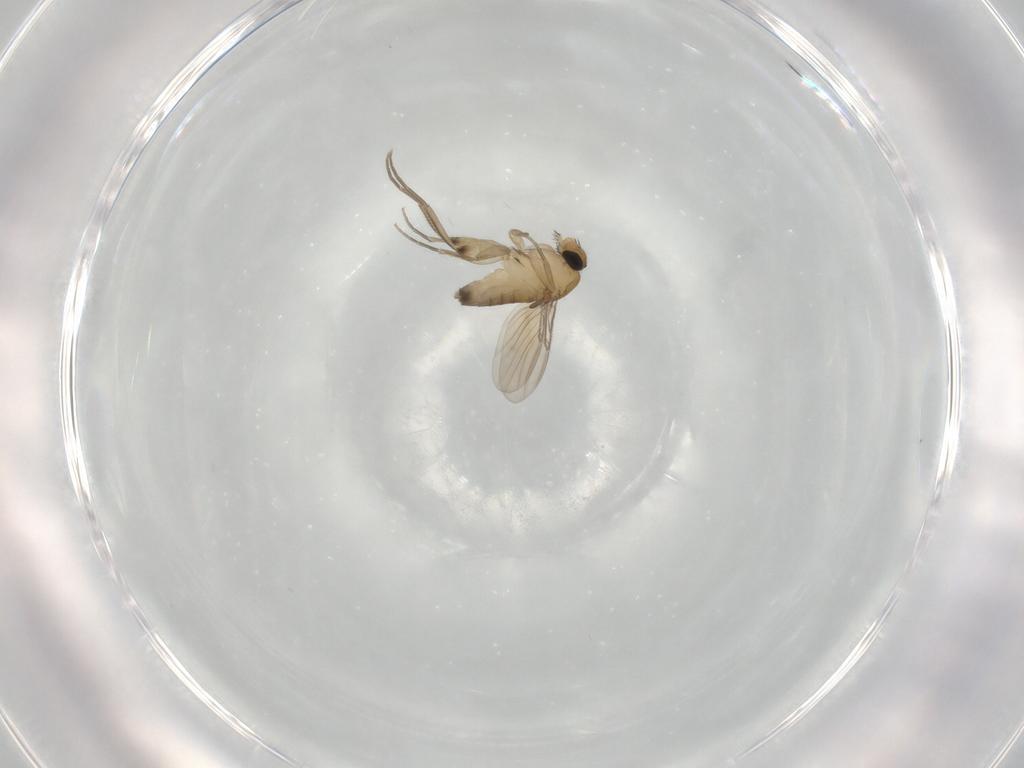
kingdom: Animalia
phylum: Arthropoda
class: Insecta
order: Diptera
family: Phoridae
